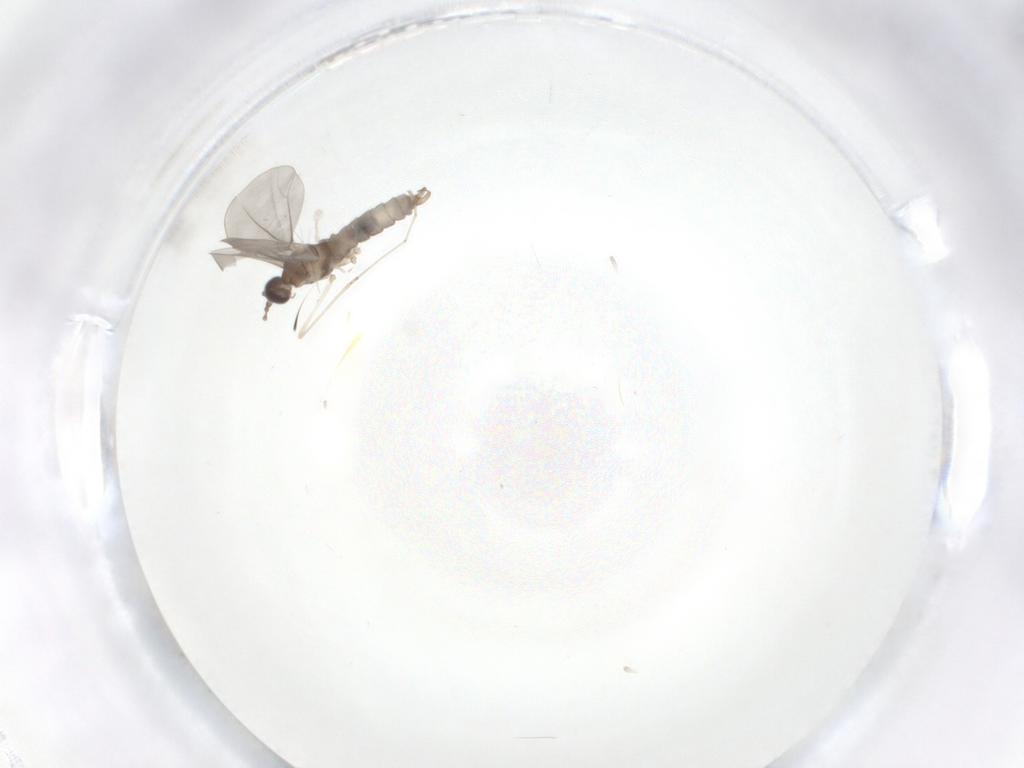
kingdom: Animalia
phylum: Arthropoda
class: Insecta
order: Diptera
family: Cecidomyiidae
